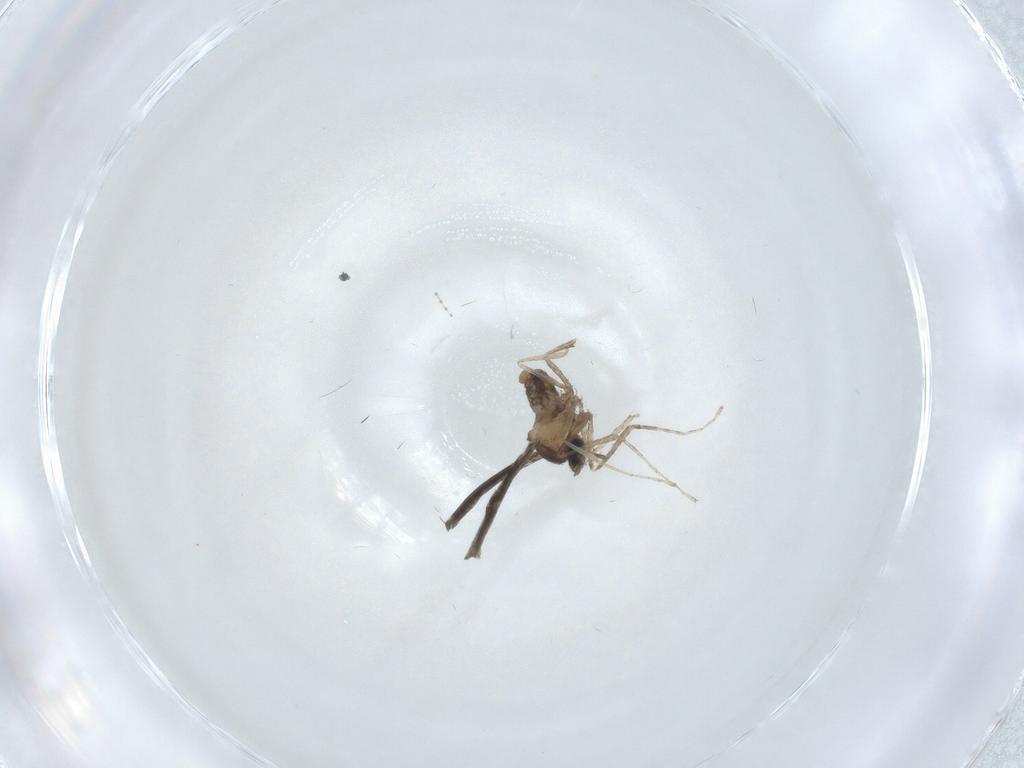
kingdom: Animalia
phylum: Arthropoda
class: Insecta
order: Diptera
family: Cecidomyiidae
